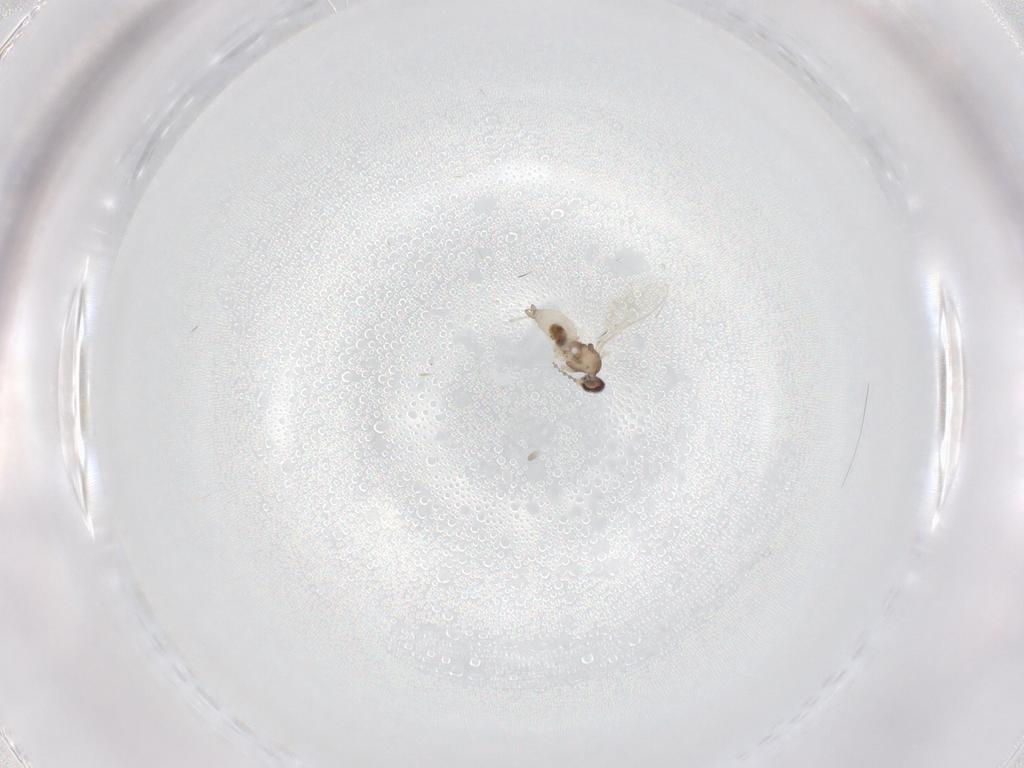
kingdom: Animalia
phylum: Arthropoda
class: Insecta
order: Diptera
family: Cecidomyiidae
